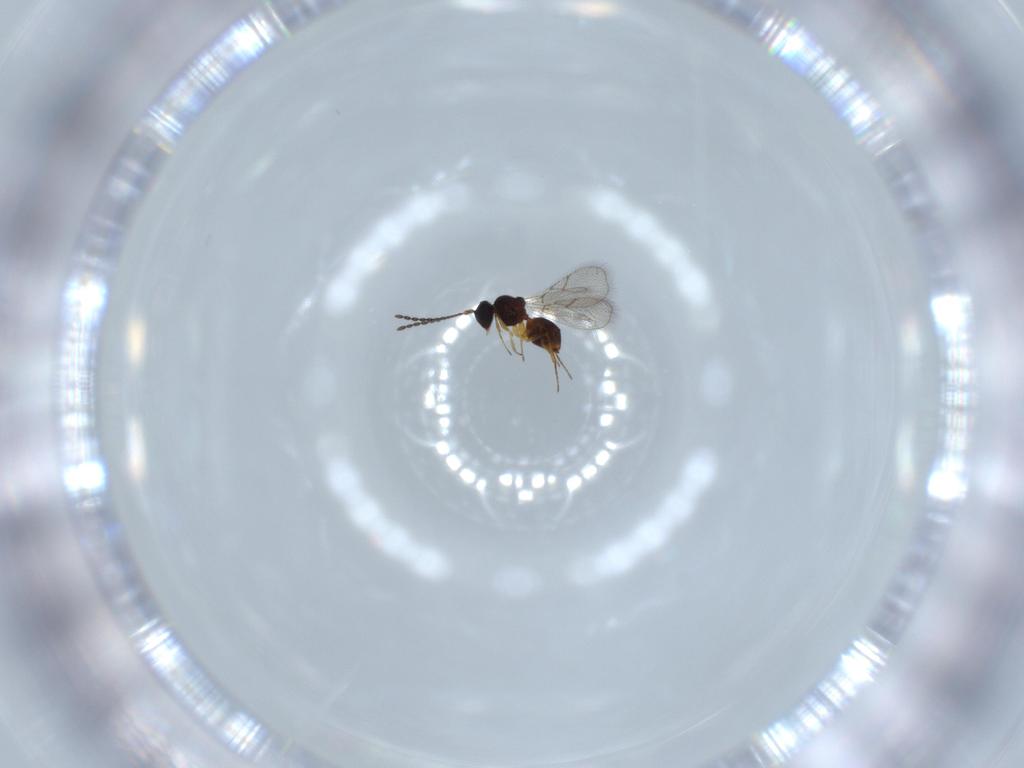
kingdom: Animalia
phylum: Arthropoda
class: Insecta
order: Hymenoptera
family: Figitidae
